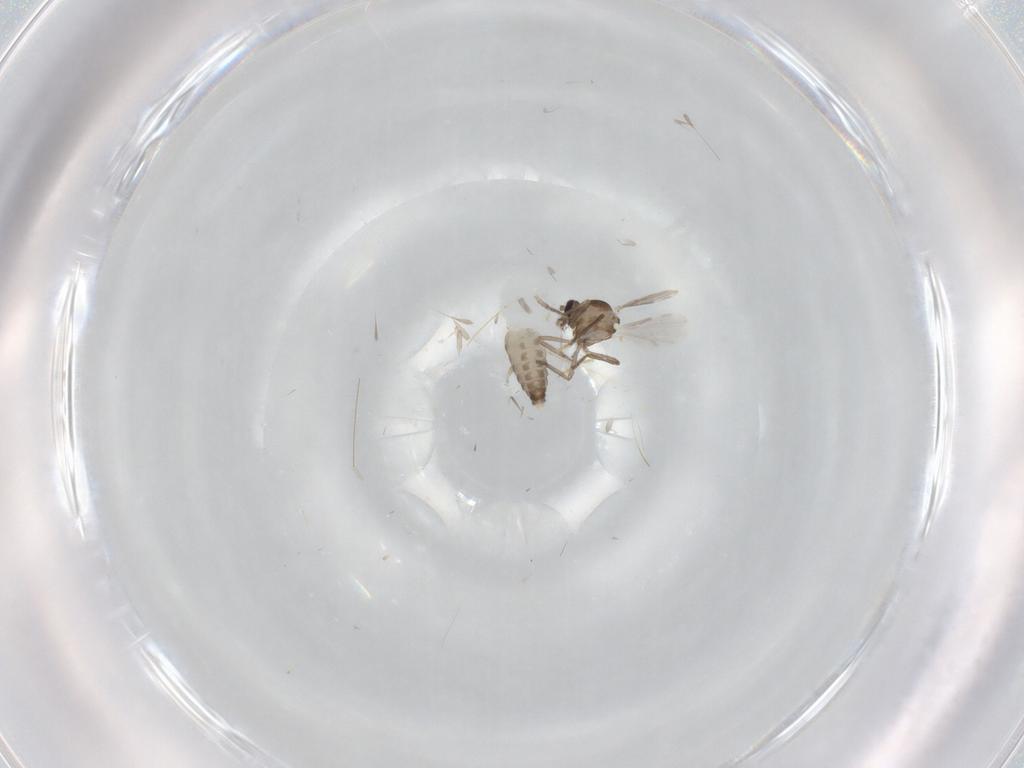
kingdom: Animalia
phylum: Arthropoda
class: Insecta
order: Diptera
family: Ceratopogonidae
